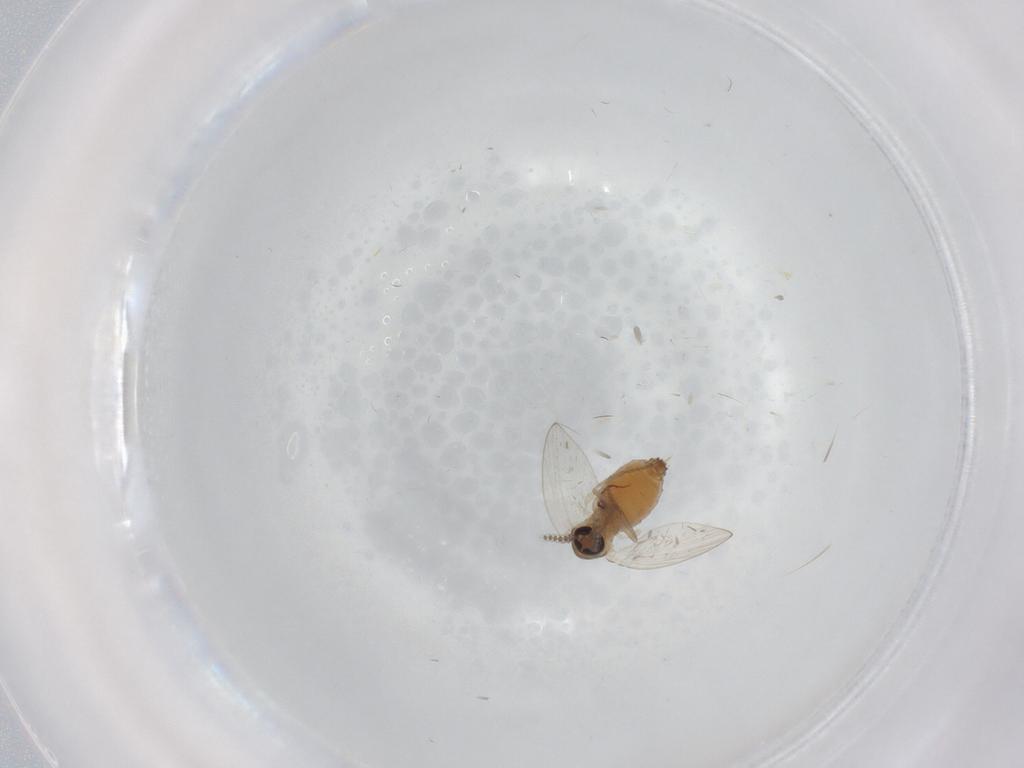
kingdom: Animalia
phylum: Arthropoda
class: Insecta
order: Diptera
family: Psychodidae
